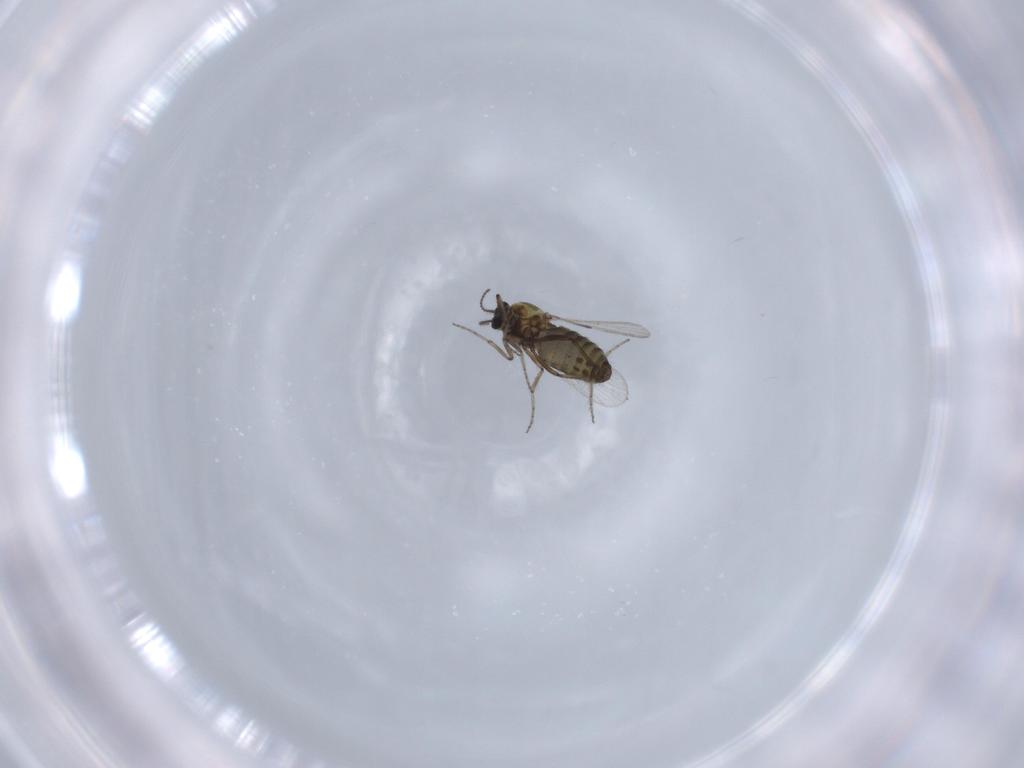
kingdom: Animalia
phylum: Arthropoda
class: Insecta
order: Diptera
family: Ceratopogonidae
